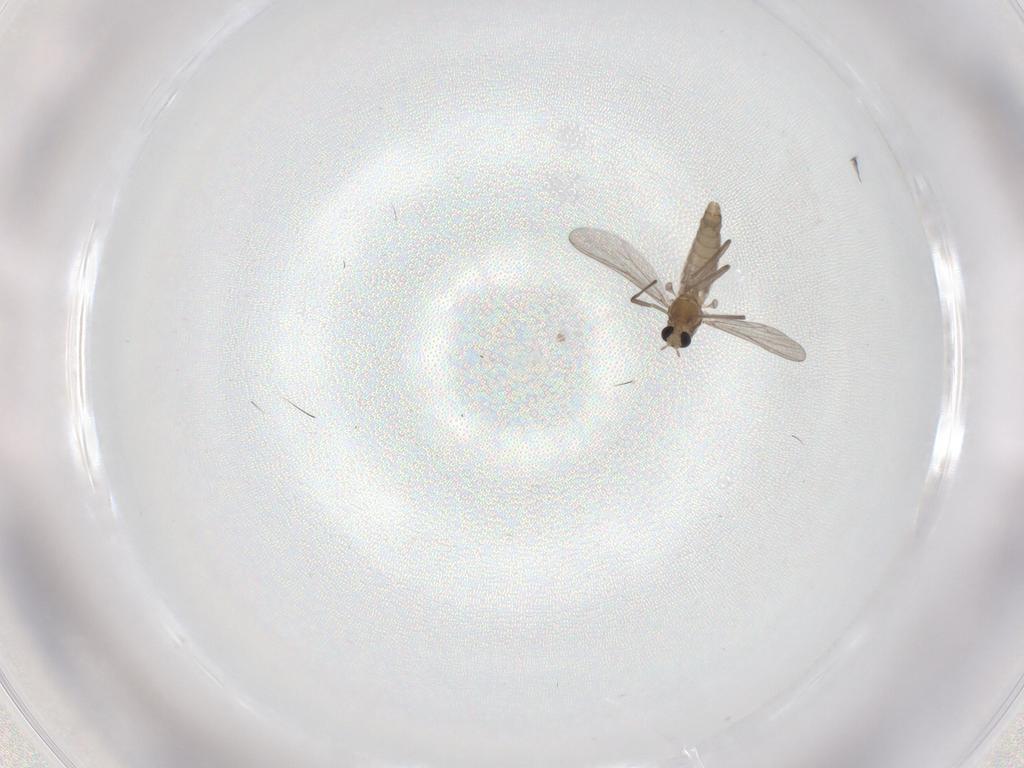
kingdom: Animalia
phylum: Arthropoda
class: Insecta
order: Diptera
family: Chironomidae
